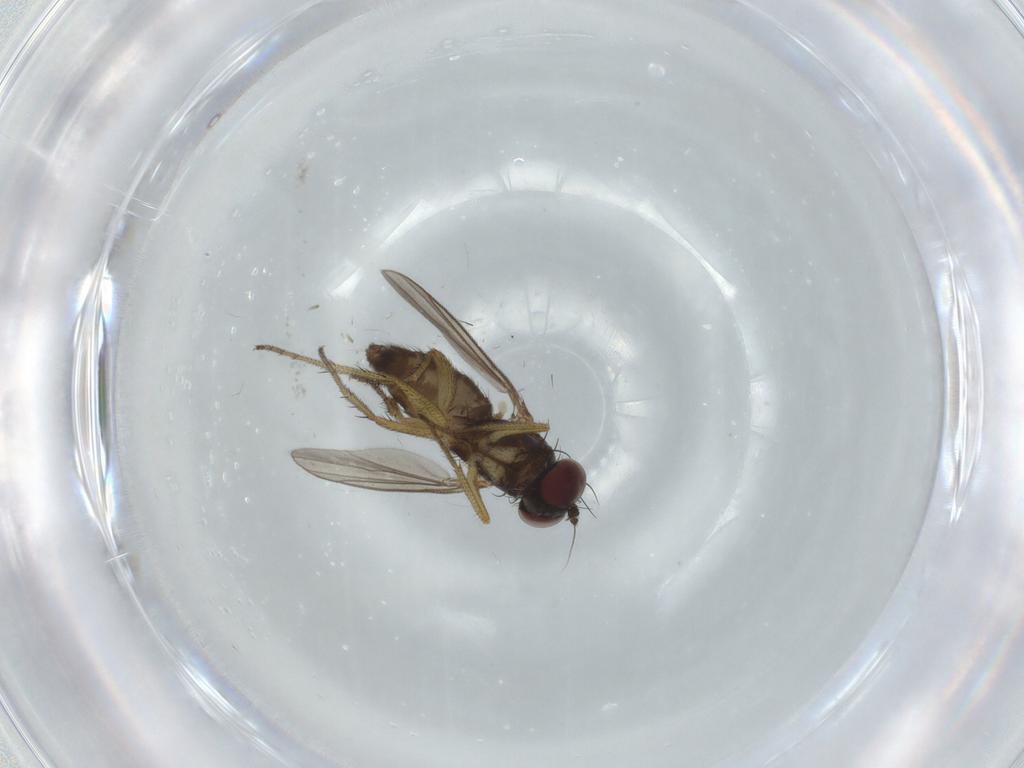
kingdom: Animalia
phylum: Arthropoda
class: Insecta
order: Diptera
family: Dolichopodidae
